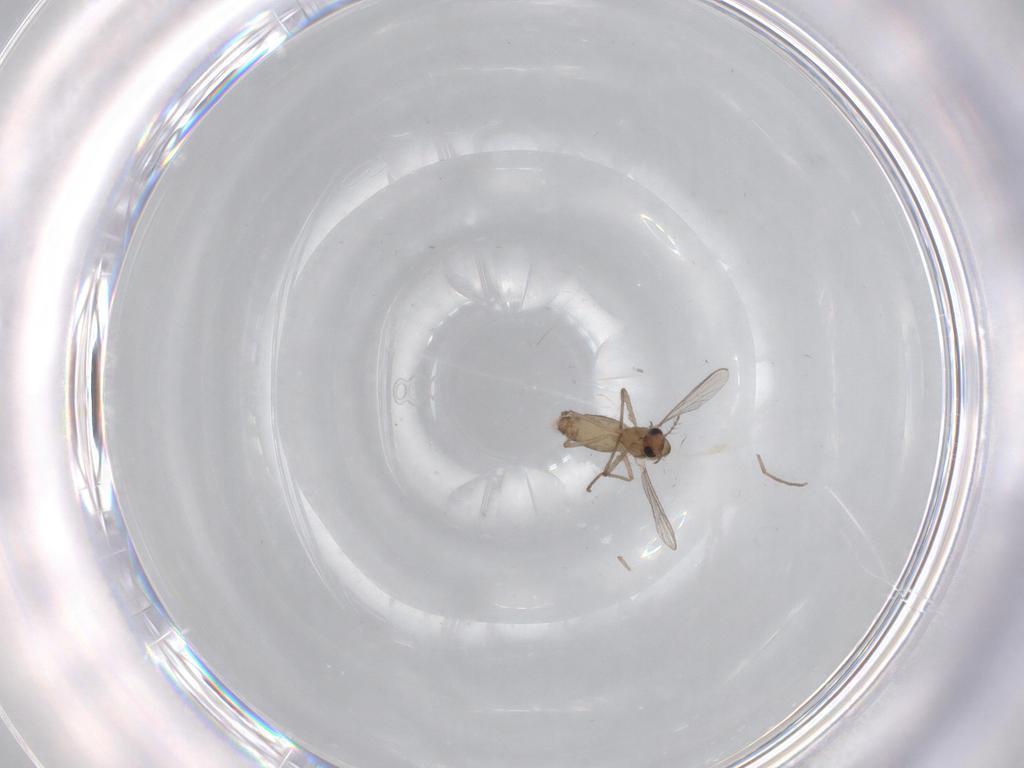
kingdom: Animalia
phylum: Arthropoda
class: Insecta
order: Diptera
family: Chironomidae
